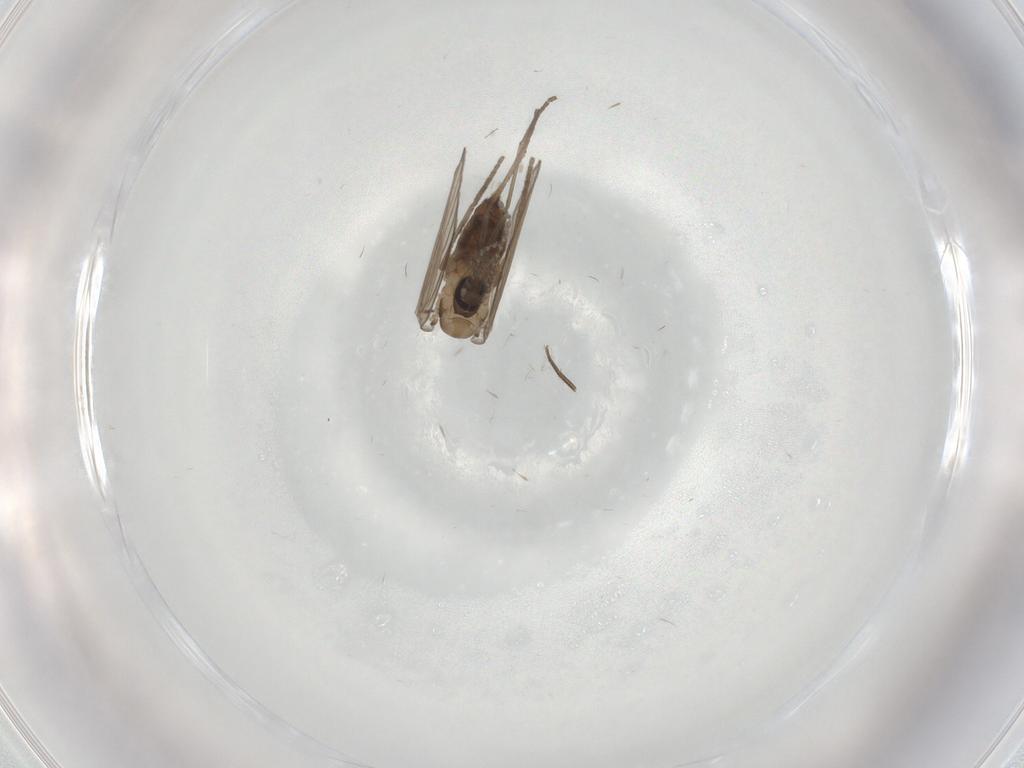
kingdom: Animalia
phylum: Arthropoda
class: Insecta
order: Diptera
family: Psychodidae
